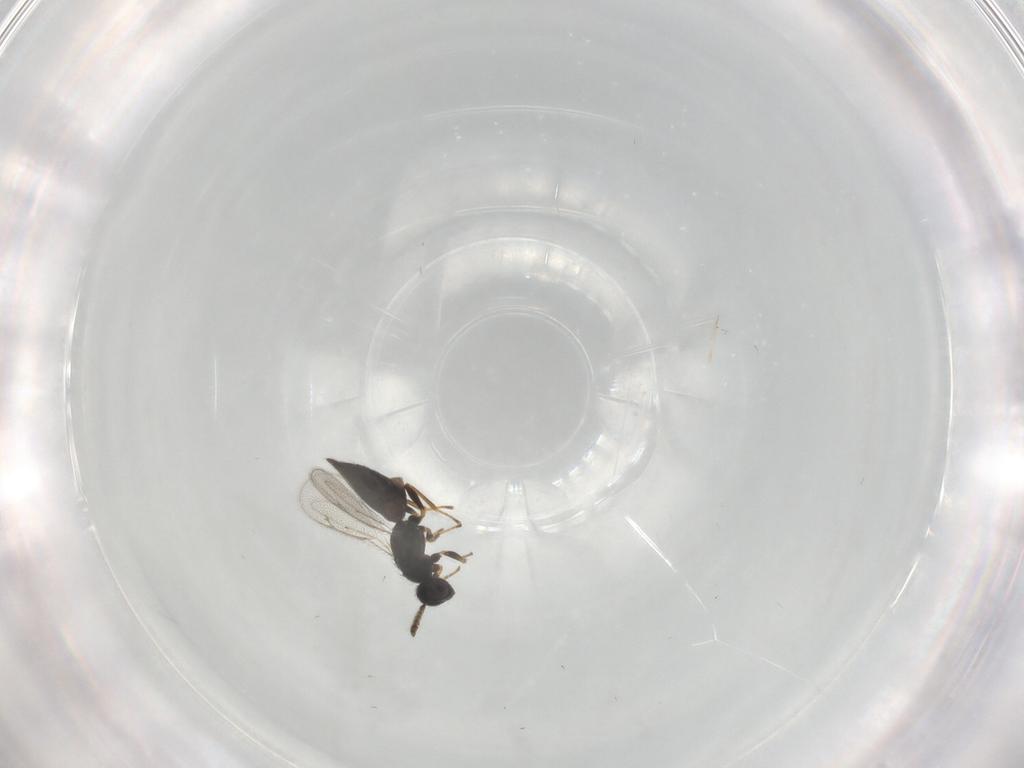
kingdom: Animalia
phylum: Arthropoda
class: Insecta
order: Hymenoptera
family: Eulophidae
